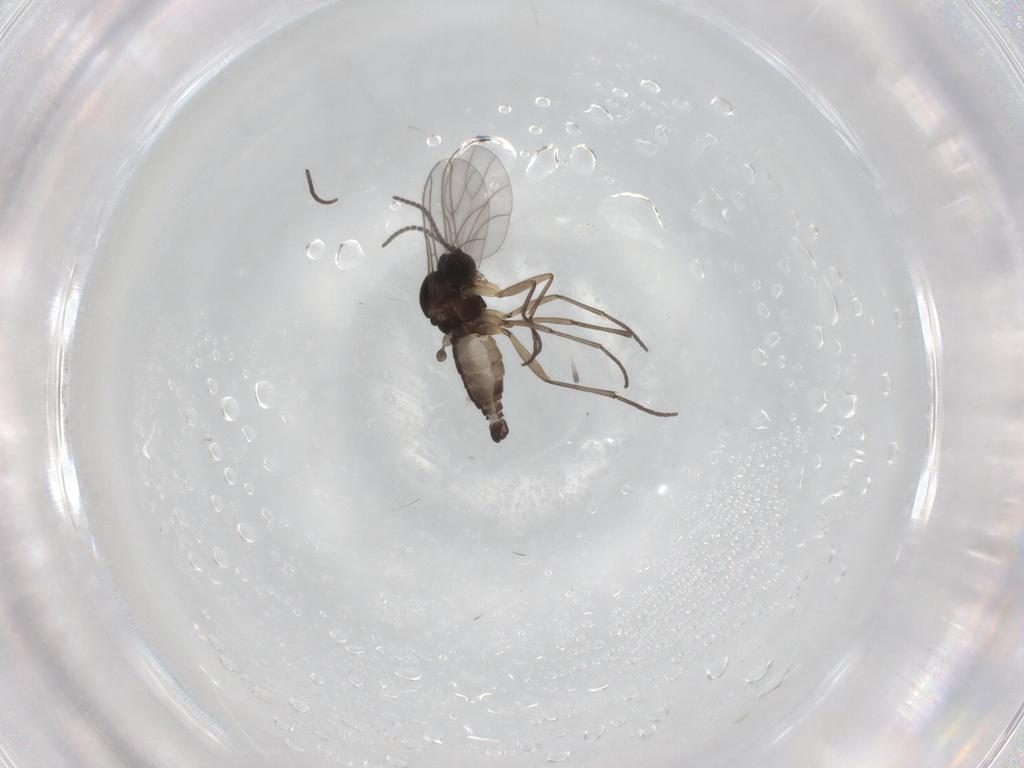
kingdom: Animalia
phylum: Arthropoda
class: Insecta
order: Diptera
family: Sciaridae
